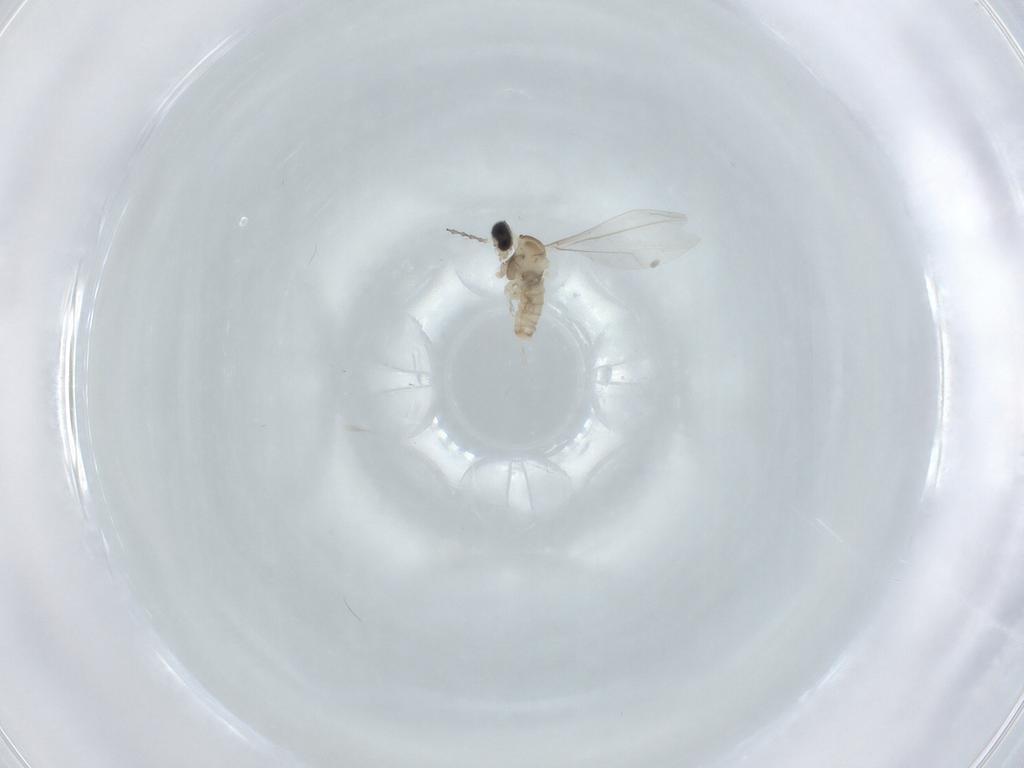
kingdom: Animalia
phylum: Arthropoda
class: Insecta
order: Diptera
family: Cecidomyiidae
